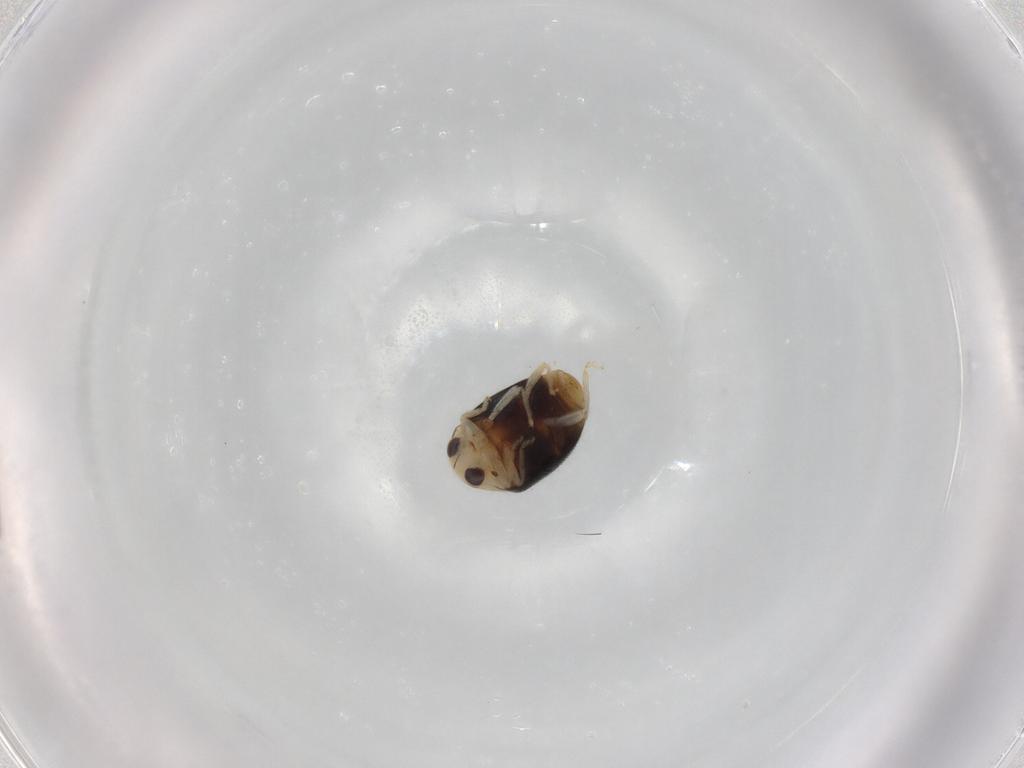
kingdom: Animalia
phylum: Arthropoda
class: Insecta
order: Coleoptera
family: Coccinellidae
